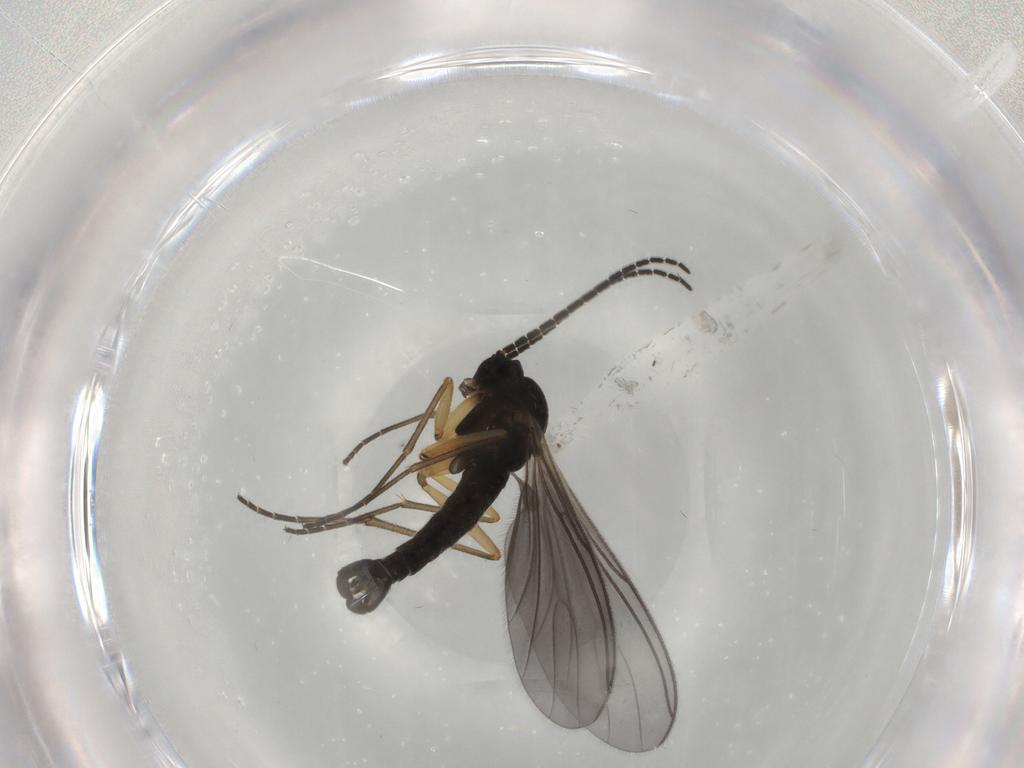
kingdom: Animalia
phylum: Arthropoda
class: Insecta
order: Diptera
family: Phoridae
